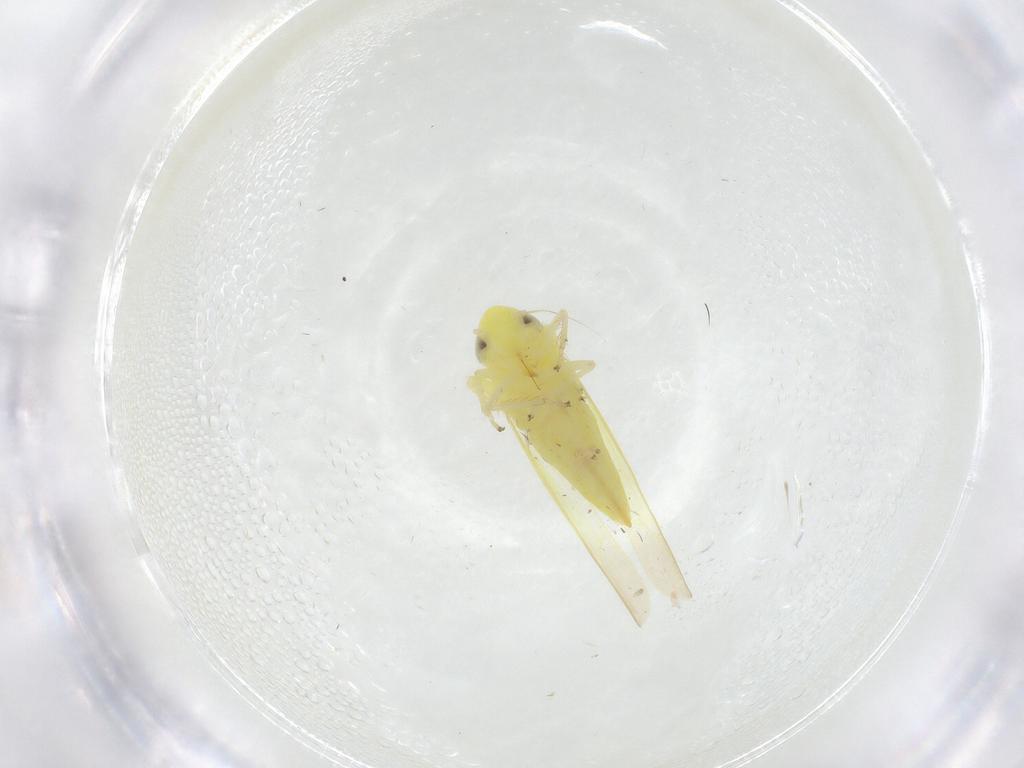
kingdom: Animalia
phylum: Arthropoda
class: Insecta
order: Hemiptera
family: Cicadellidae
